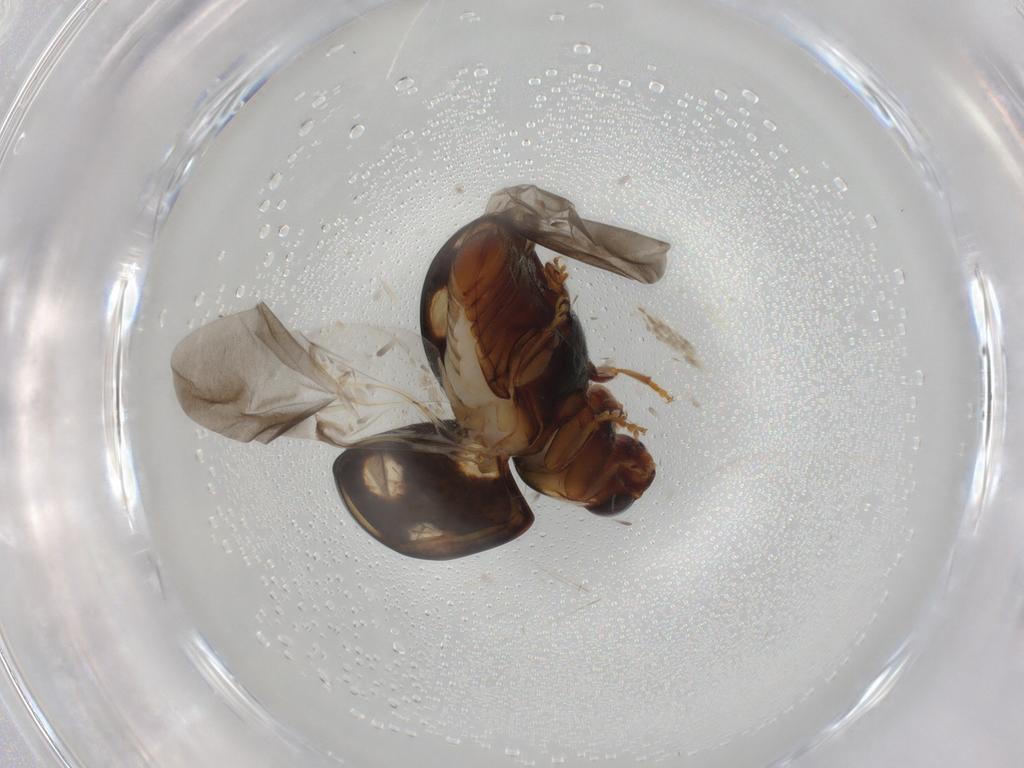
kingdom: Animalia
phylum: Arthropoda
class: Insecta
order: Coleoptera
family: Coccinellidae
